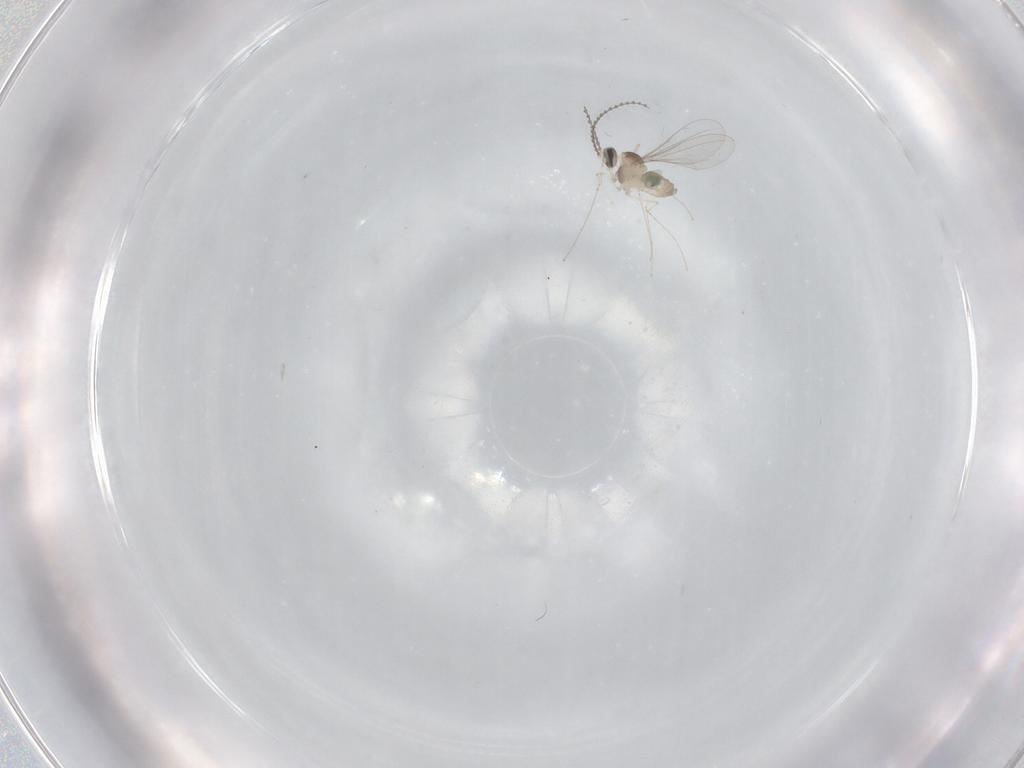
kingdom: Animalia
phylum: Arthropoda
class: Insecta
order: Diptera
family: Cecidomyiidae
